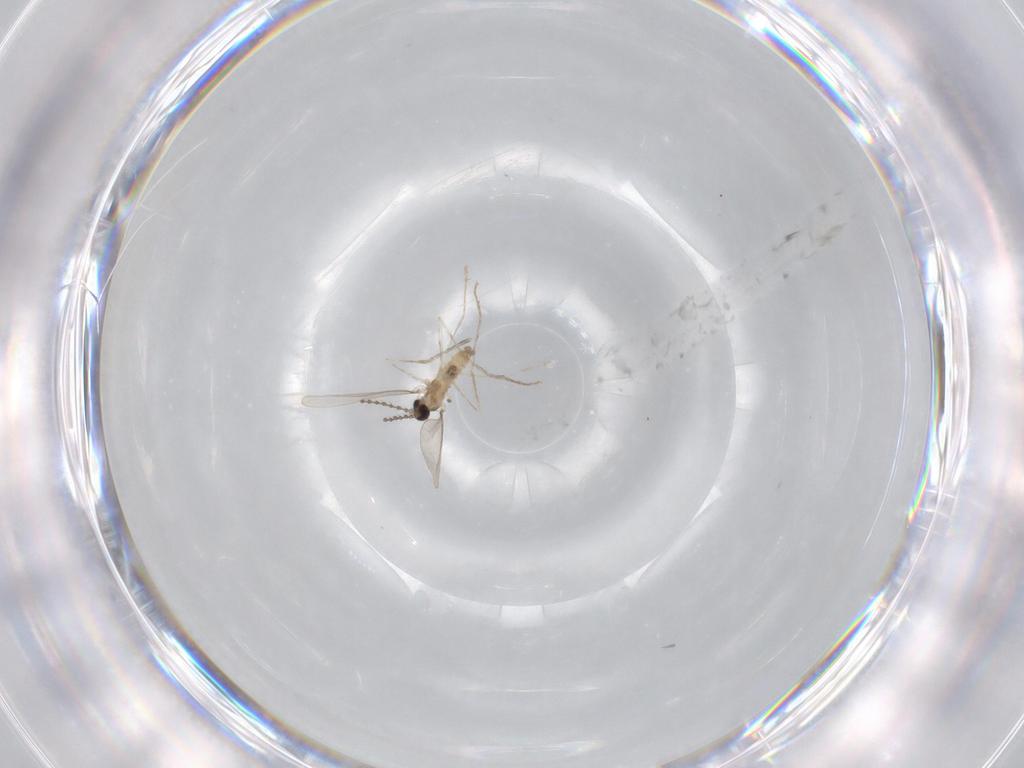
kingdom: Animalia
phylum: Arthropoda
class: Insecta
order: Diptera
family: Cecidomyiidae
